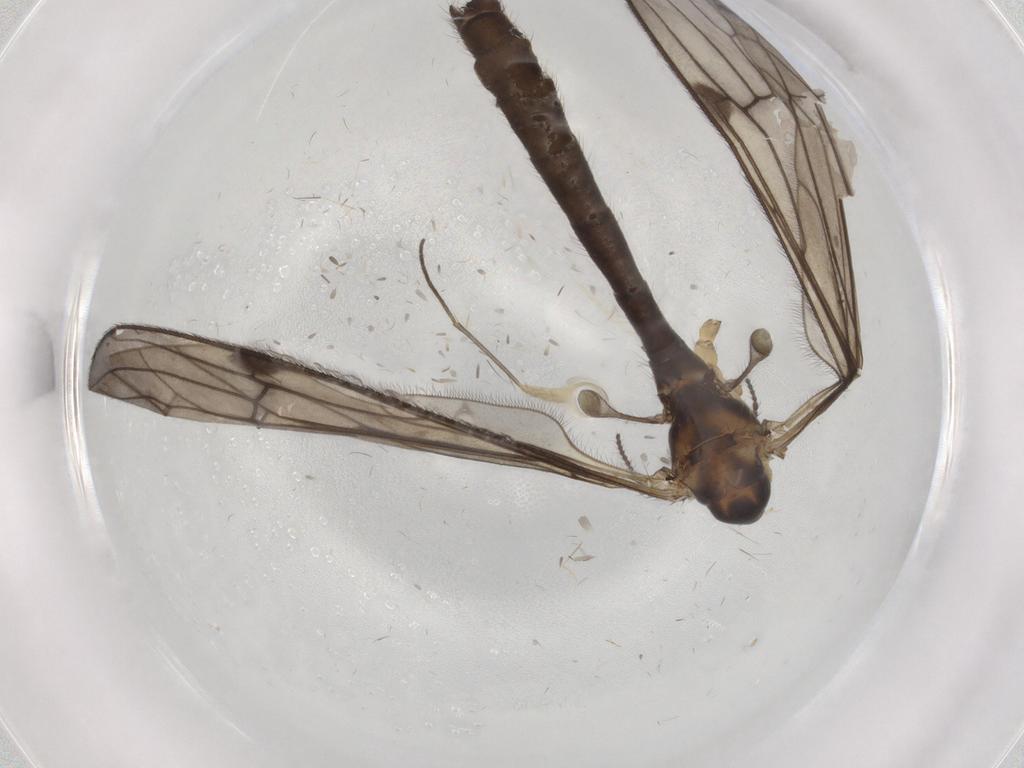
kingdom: Animalia
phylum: Arthropoda
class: Insecta
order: Diptera
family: Limoniidae
